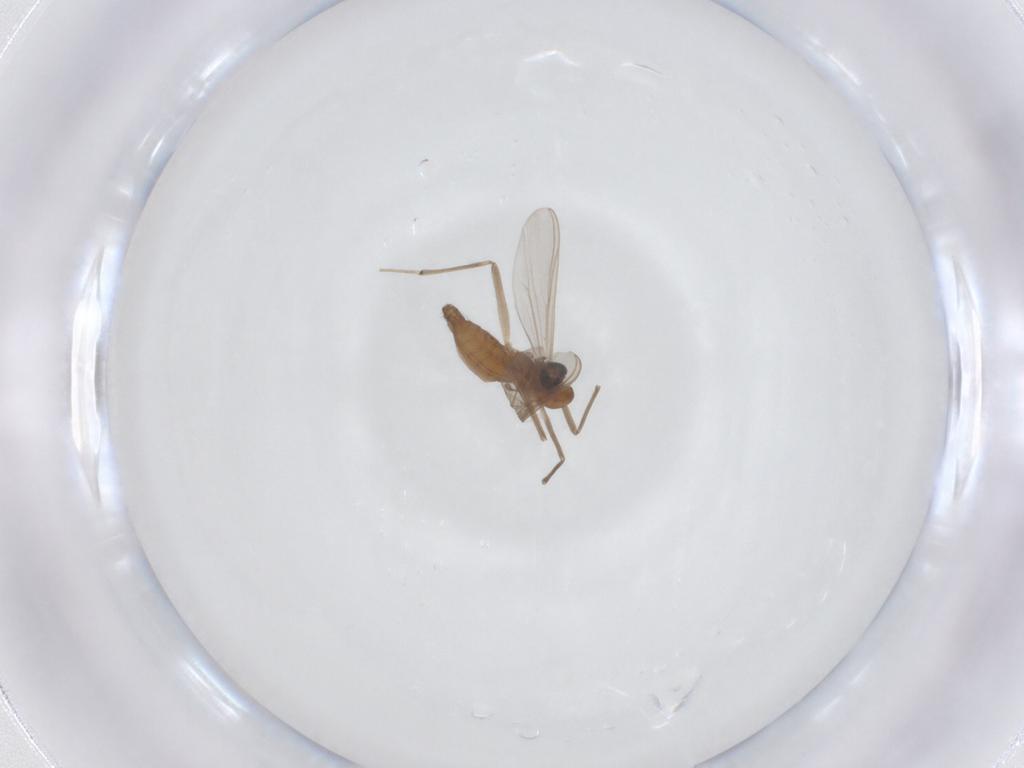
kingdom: Animalia
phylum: Arthropoda
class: Insecta
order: Diptera
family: Chironomidae
